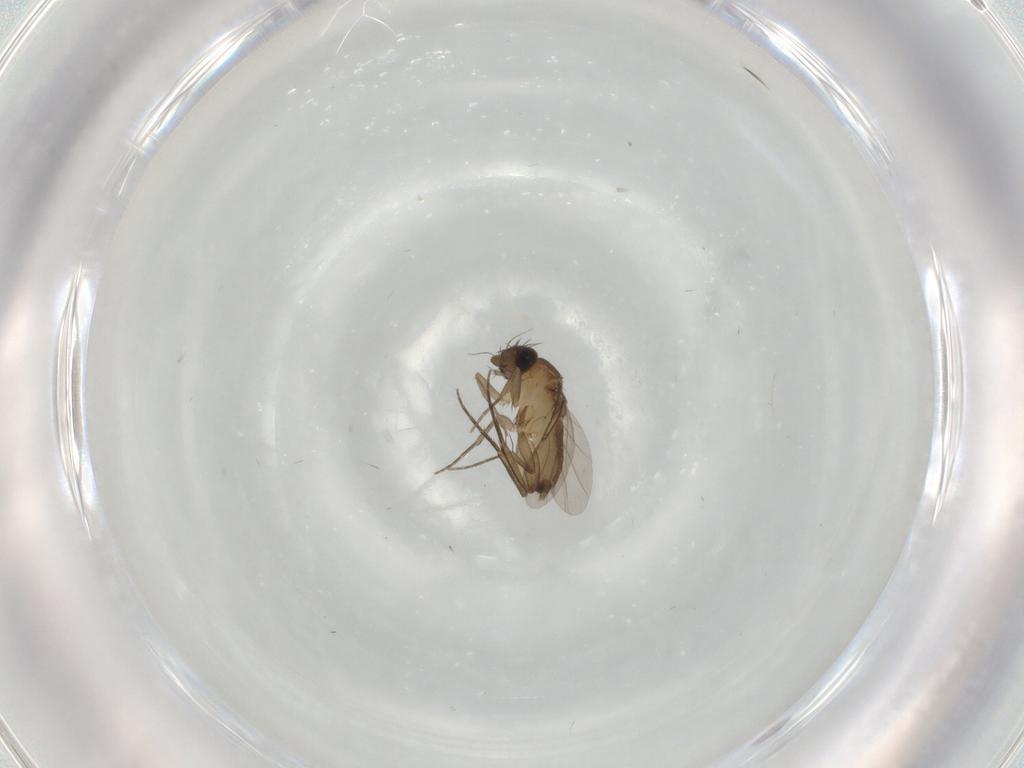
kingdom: Animalia
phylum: Arthropoda
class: Insecta
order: Diptera
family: Phoridae
